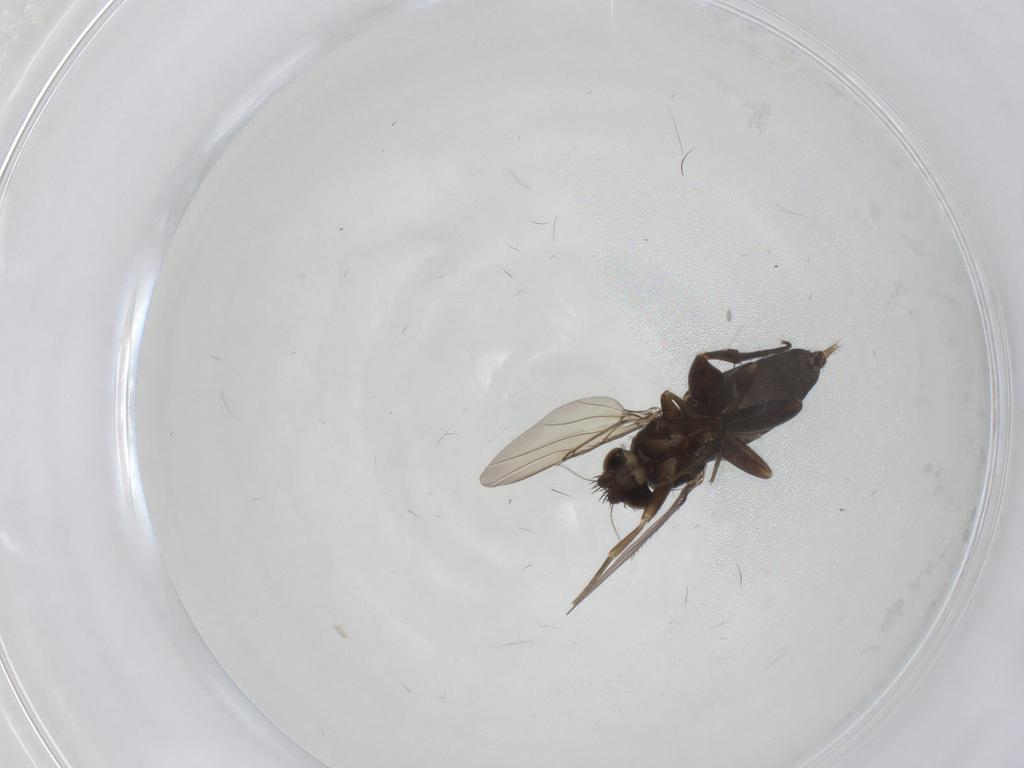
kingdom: Animalia
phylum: Arthropoda
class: Insecta
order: Diptera
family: Phoridae
